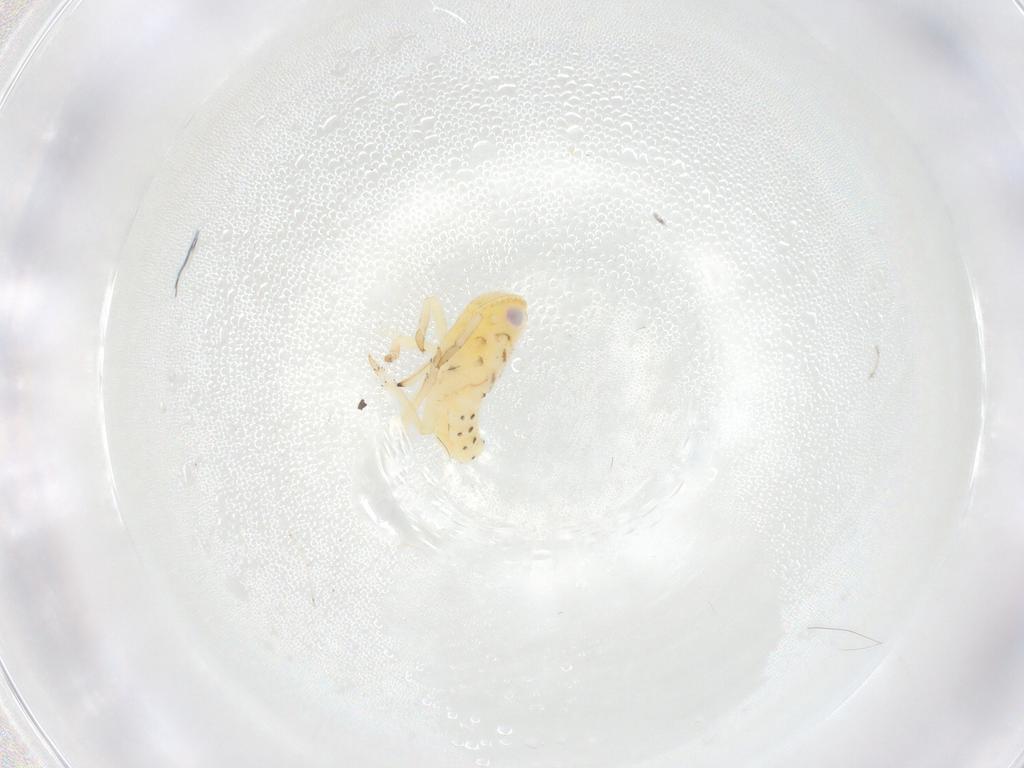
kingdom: Animalia
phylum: Arthropoda
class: Insecta
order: Hemiptera
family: Tropiduchidae
